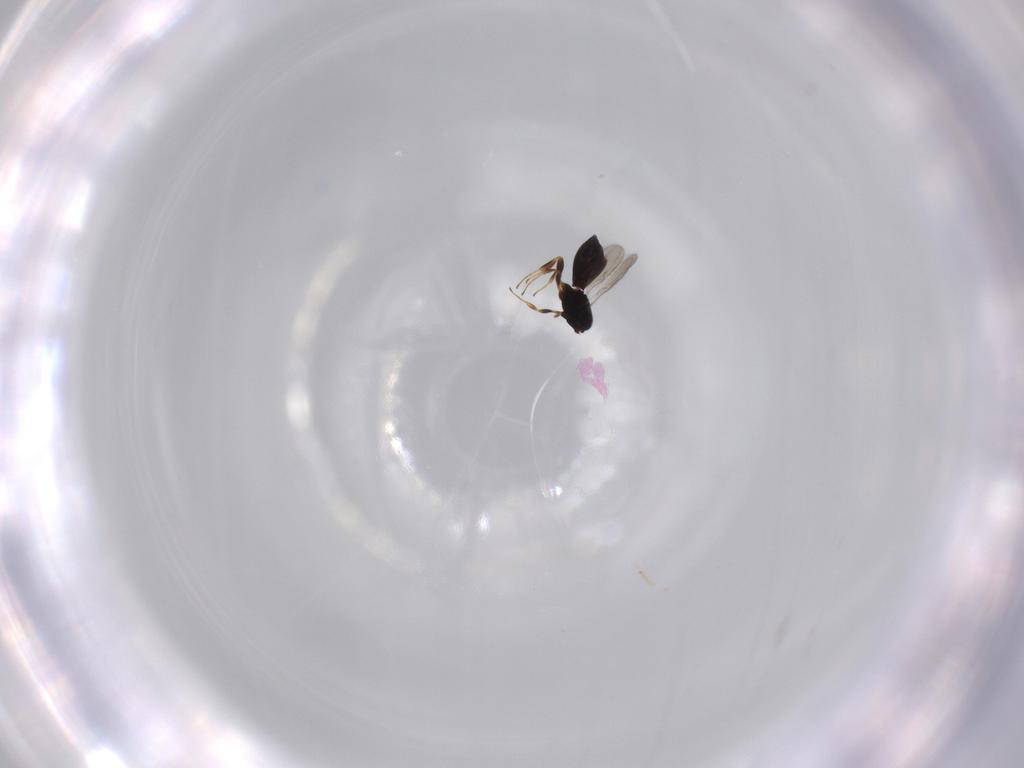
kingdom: Animalia
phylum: Arthropoda
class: Insecta
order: Hymenoptera
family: Scelionidae
